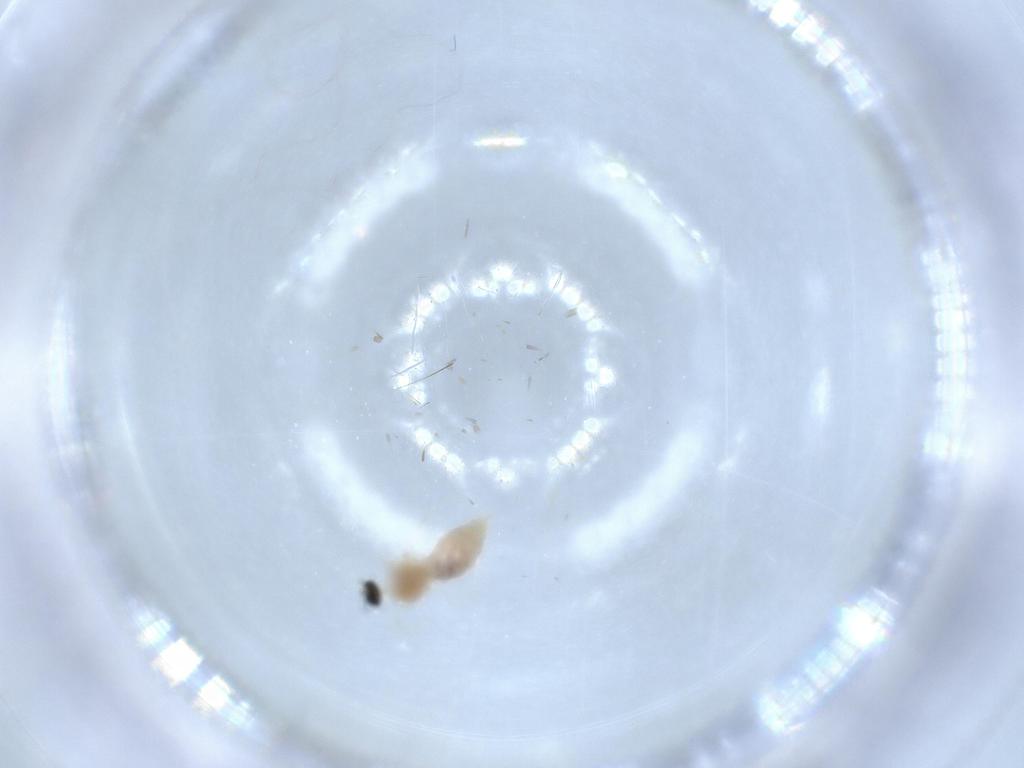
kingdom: Animalia
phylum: Arthropoda
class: Insecta
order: Diptera
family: Cecidomyiidae
